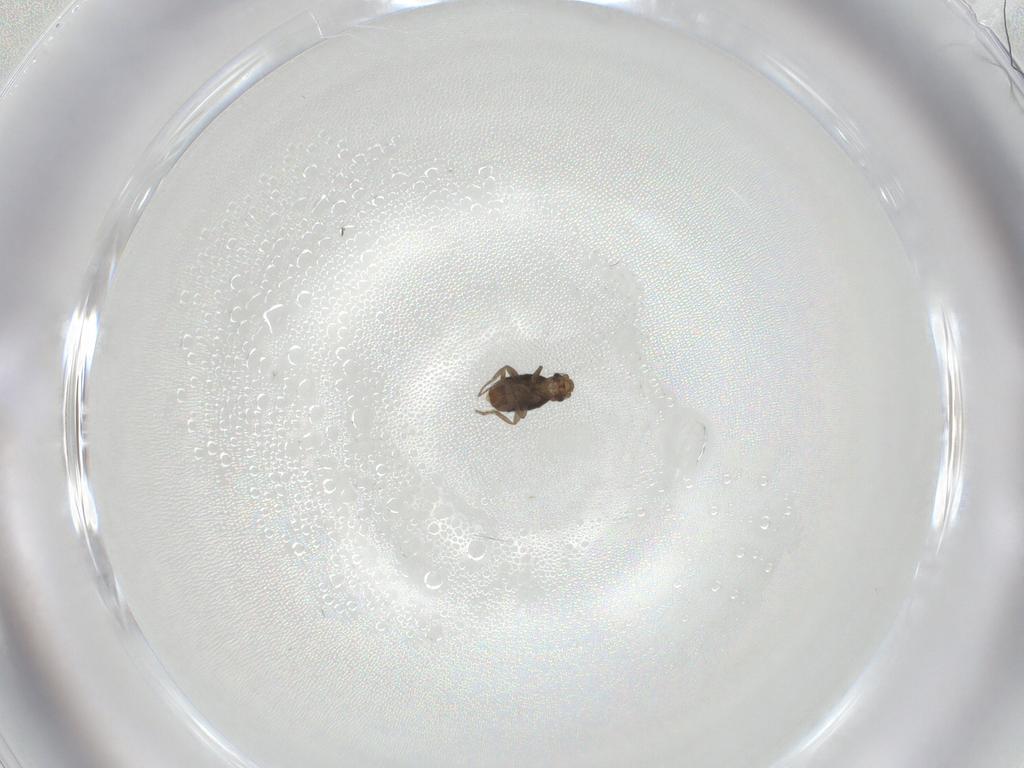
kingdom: Animalia
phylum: Arthropoda
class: Insecta
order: Diptera
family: Phoridae
